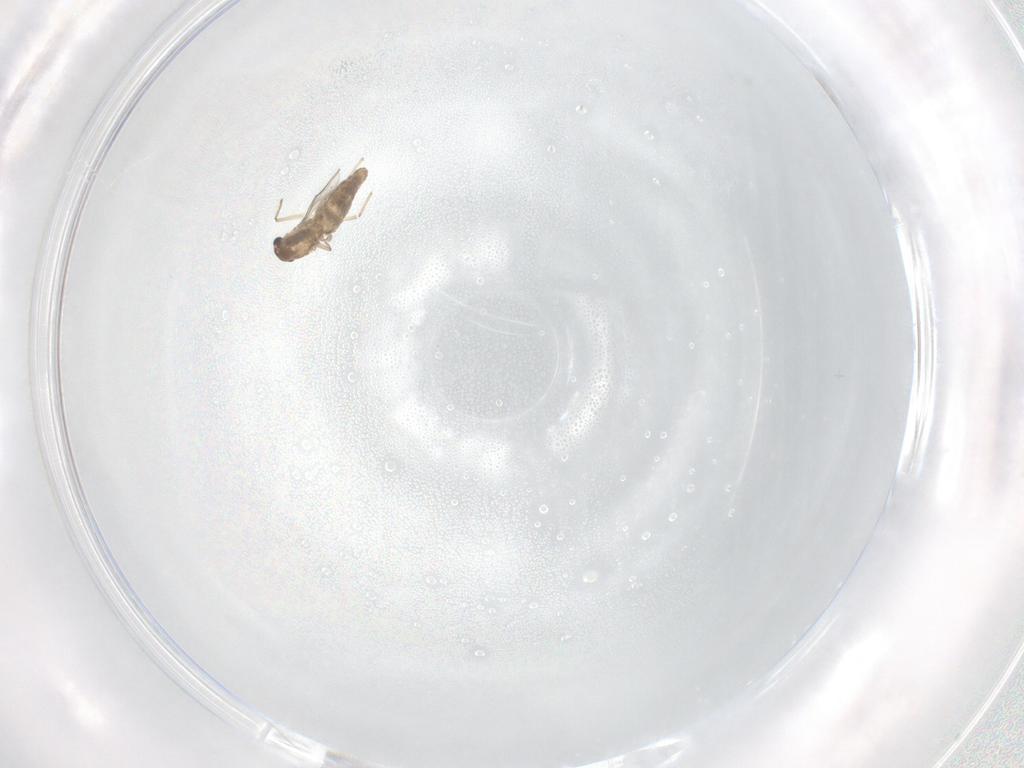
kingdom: Animalia
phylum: Arthropoda
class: Insecta
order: Diptera
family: Chironomidae
